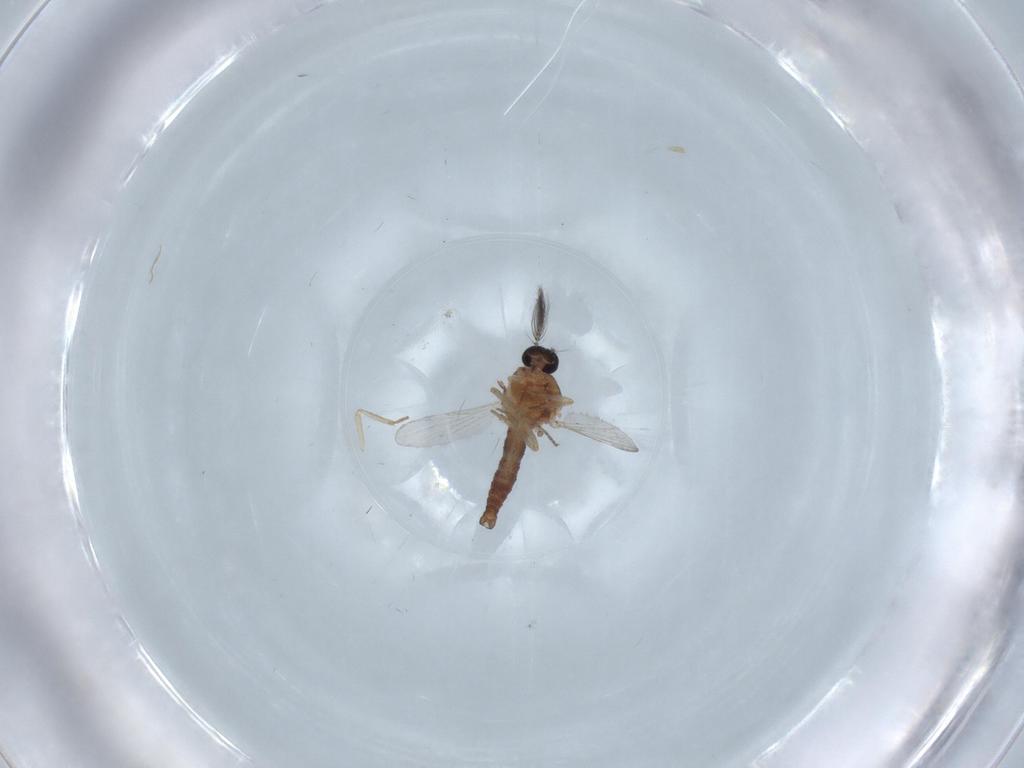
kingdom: Animalia
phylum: Arthropoda
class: Insecta
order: Diptera
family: Ceratopogonidae
